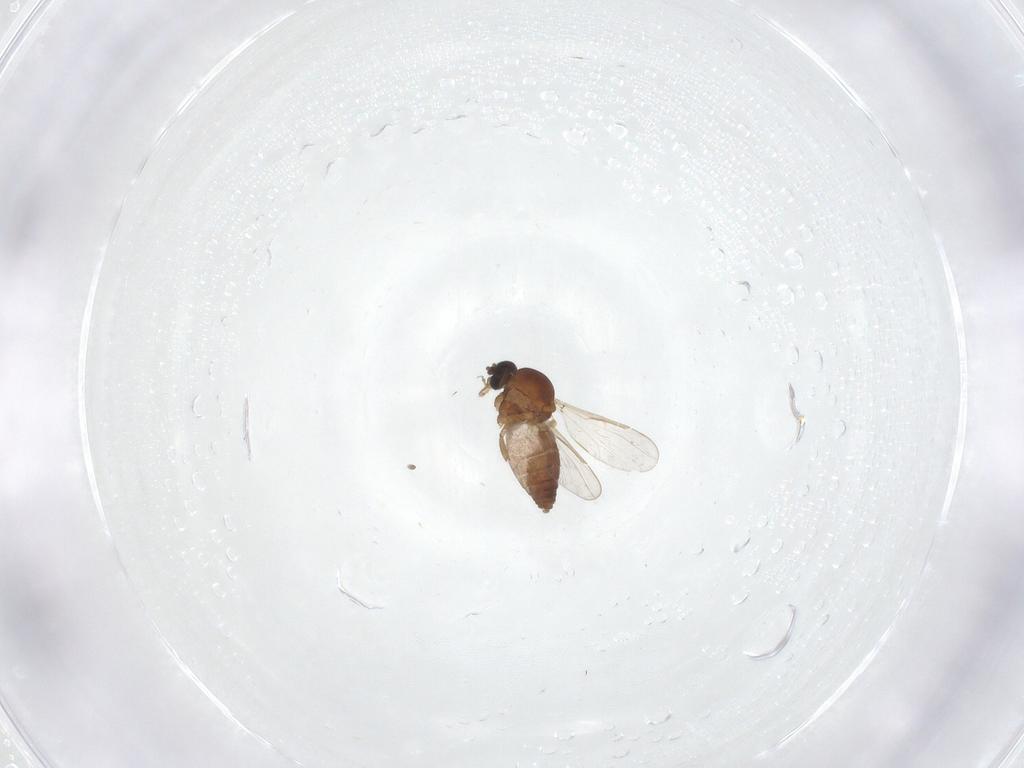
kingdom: Animalia
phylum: Arthropoda
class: Insecta
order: Diptera
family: Ceratopogonidae
